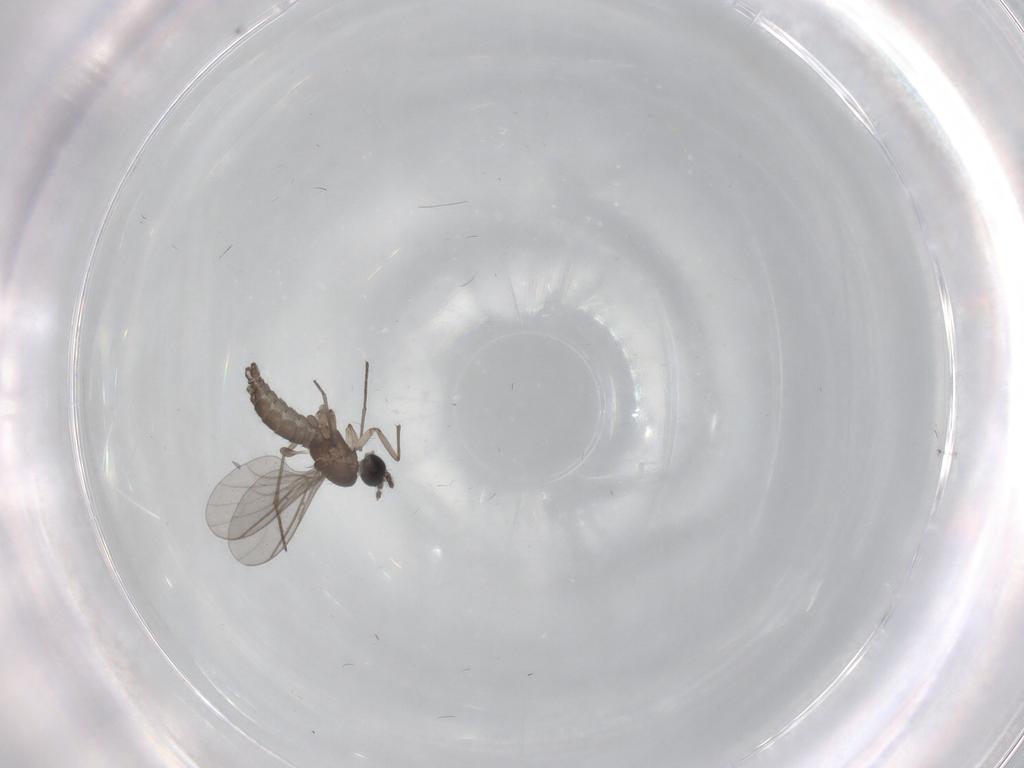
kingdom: Animalia
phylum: Arthropoda
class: Insecta
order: Diptera
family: Sciaridae
